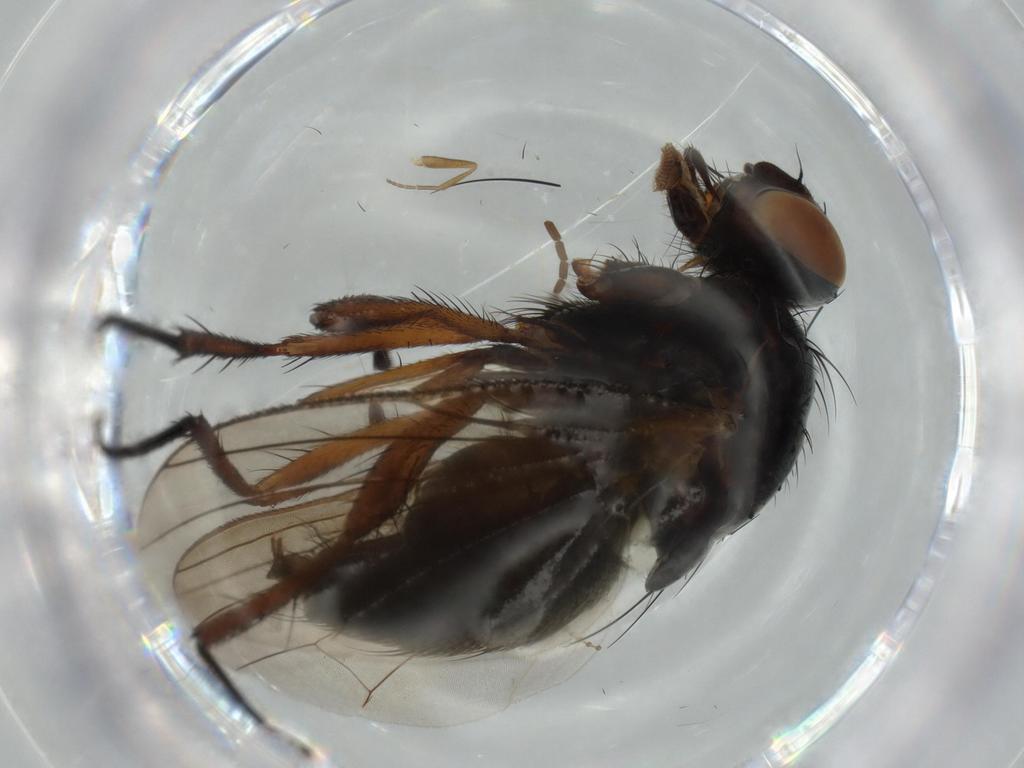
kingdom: Animalia
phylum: Arthropoda
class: Insecta
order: Diptera
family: Anthomyiidae
